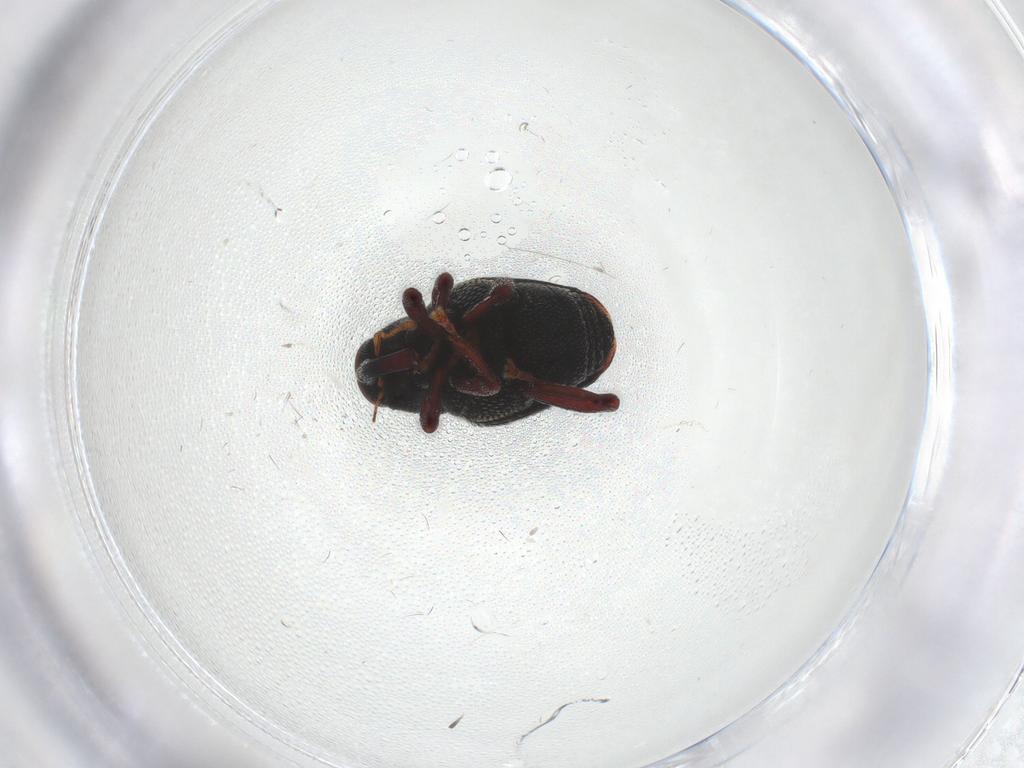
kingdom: Animalia
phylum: Arthropoda
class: Insecta
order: Coleoptera
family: Curculionidae
